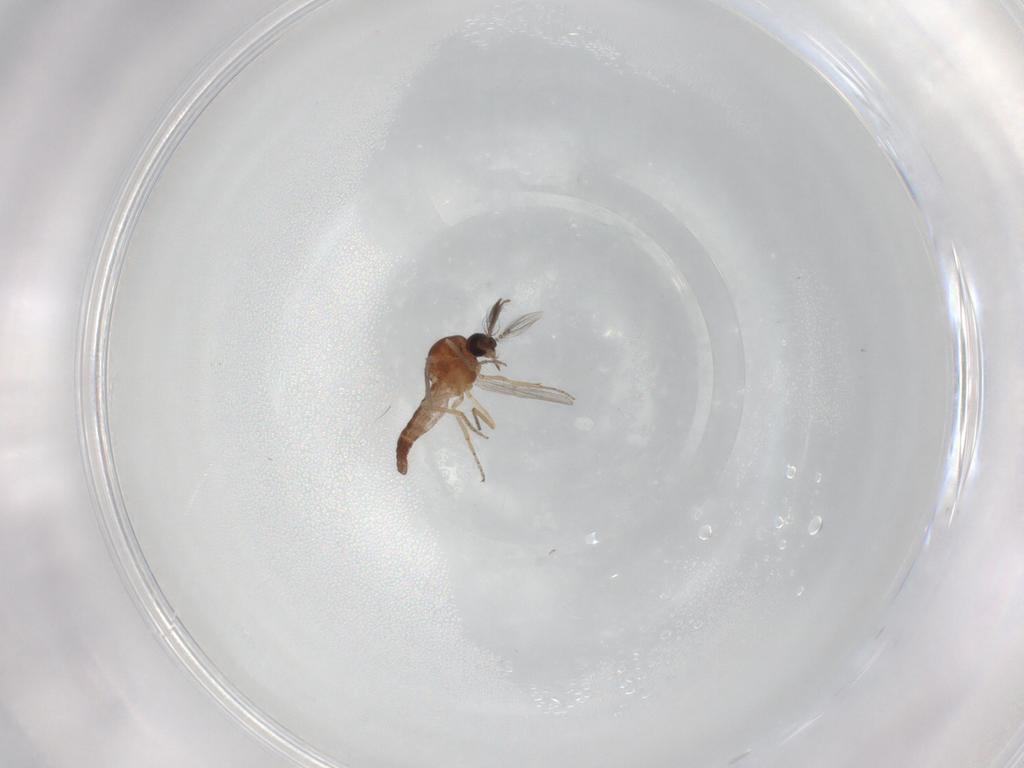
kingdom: Animalia
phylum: Arthropoda
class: Insecta
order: Diptera
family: Ceratopogonidae
